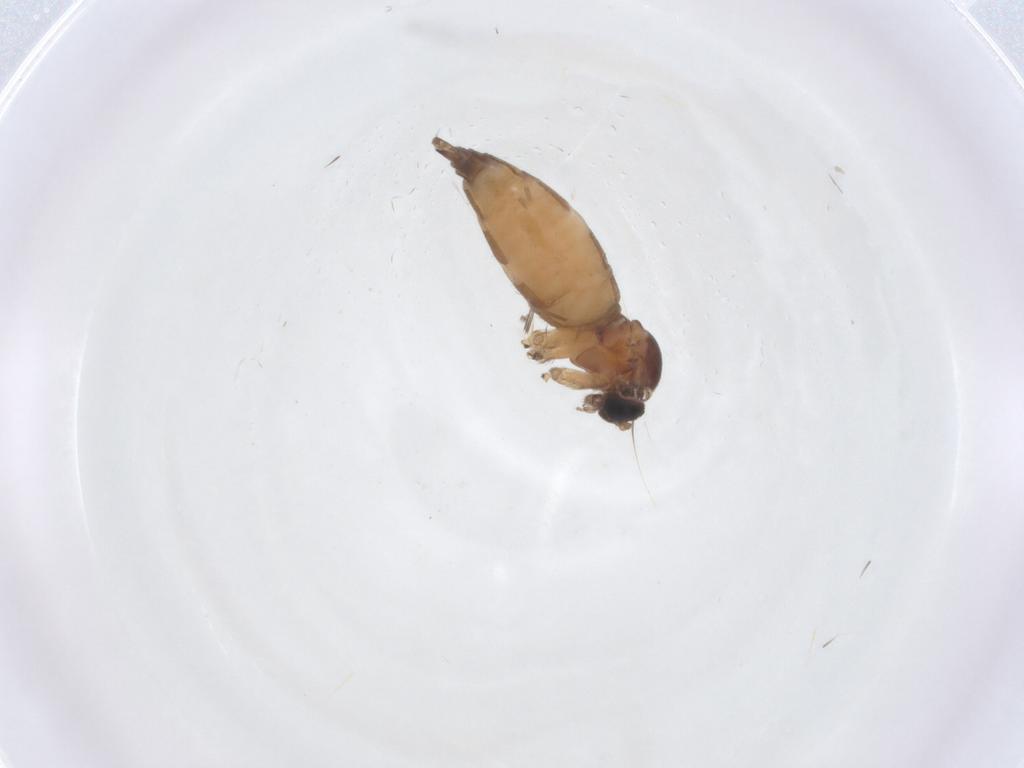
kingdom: Animalia
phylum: Arthropoda
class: Insecta
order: Diptera
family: Sciaridae
